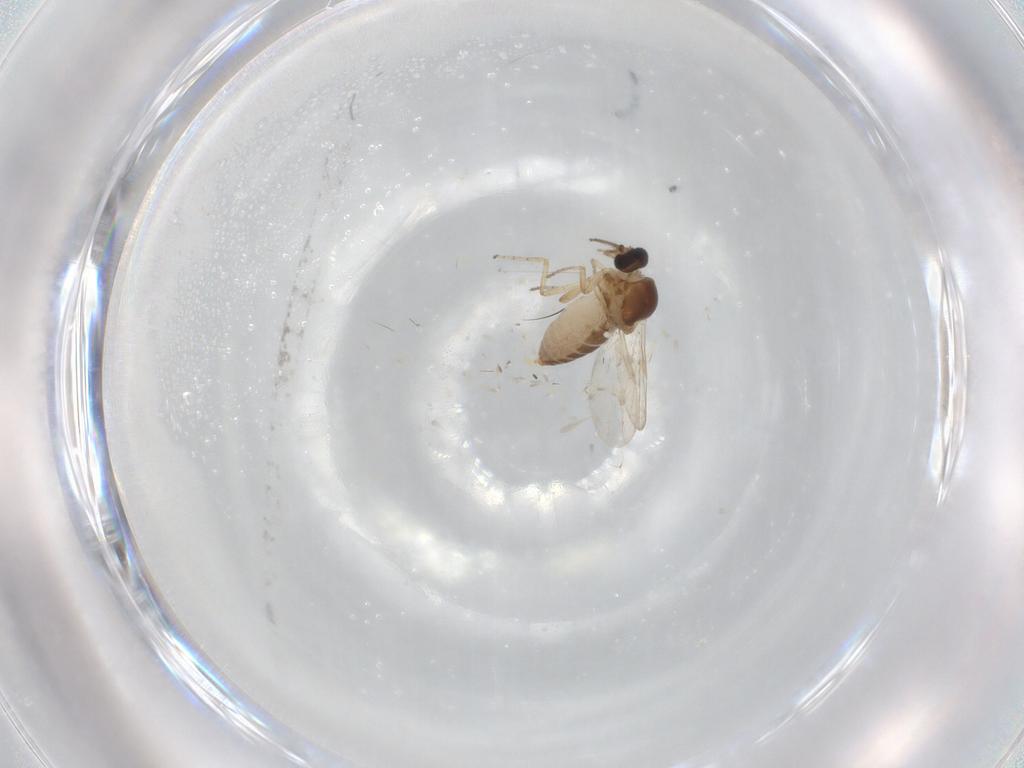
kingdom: Animalia
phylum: Arthropoda
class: Insecta
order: Diptera
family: Ceratopogonidae
